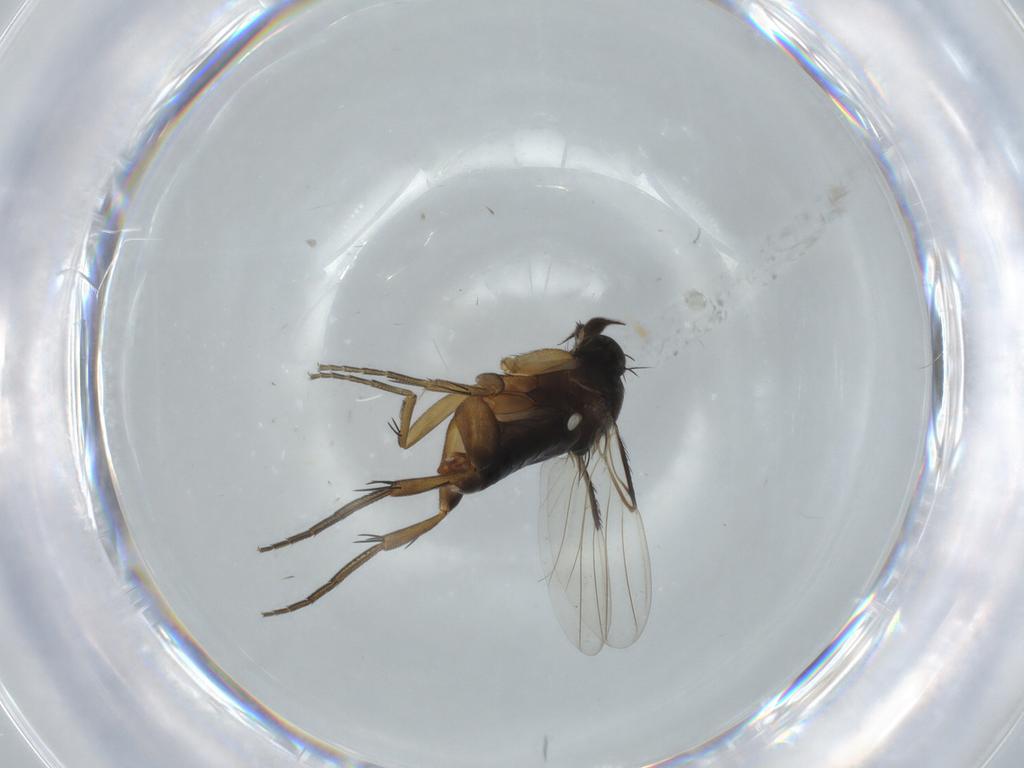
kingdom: Animalia
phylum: Arthropoda
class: Insecta
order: Diptera
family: Phoridae
